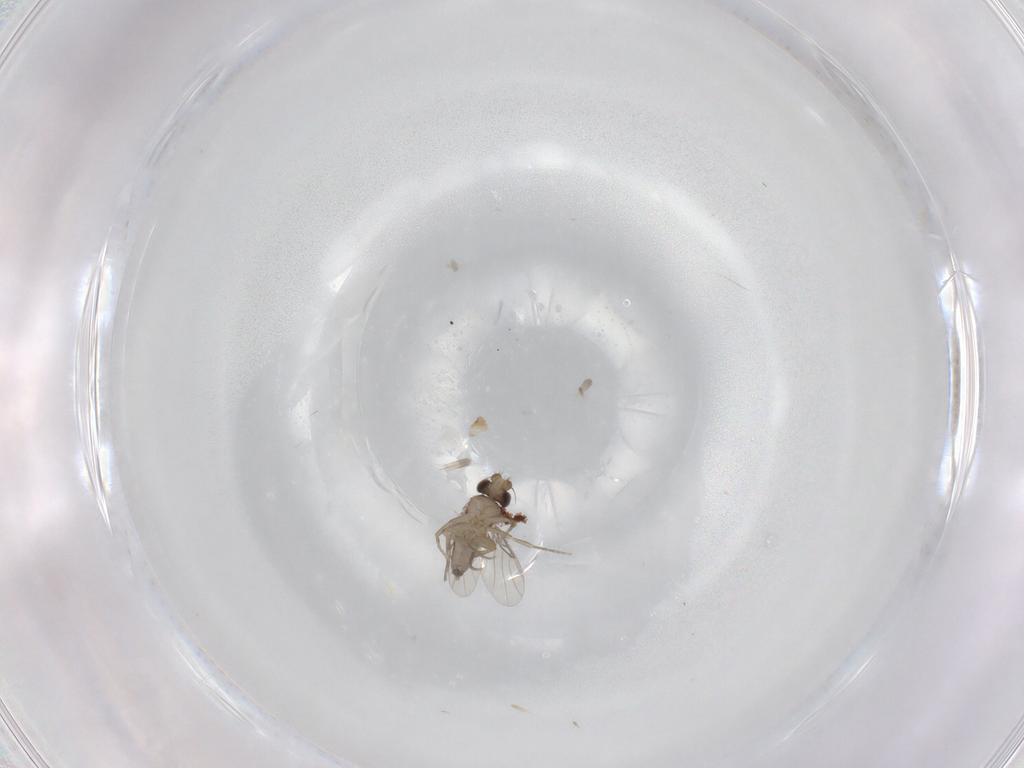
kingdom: Animalia
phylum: Arthropoda
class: Insecta
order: Diptera
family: Phoridae
